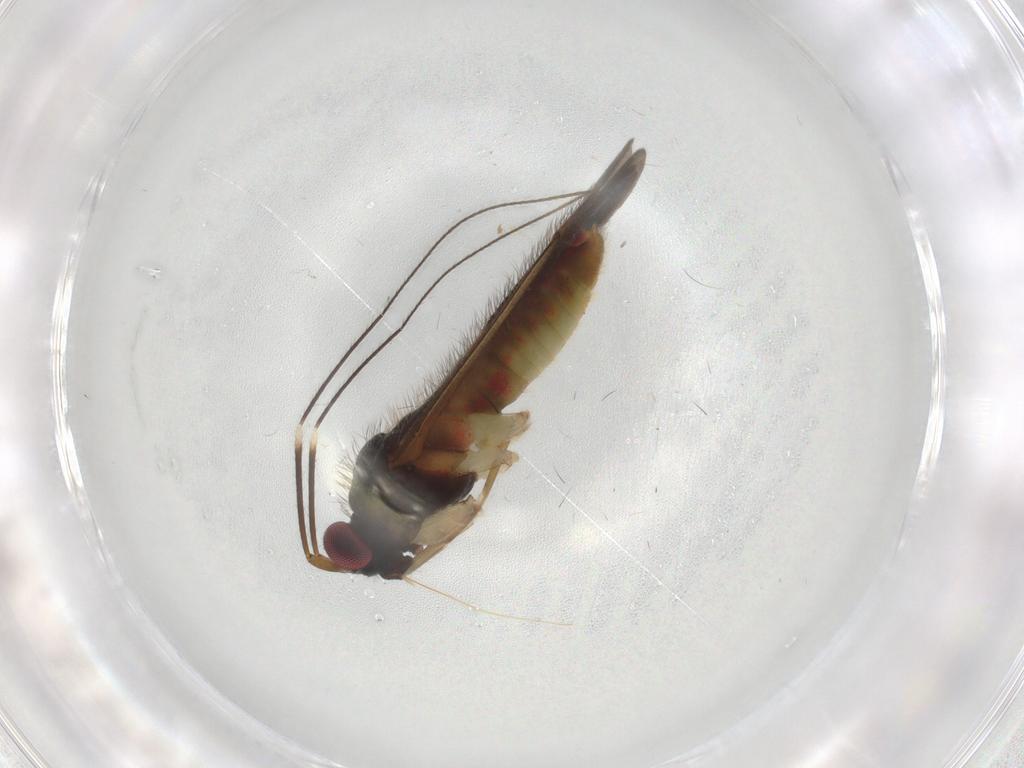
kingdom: Animalia
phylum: Arthropoda
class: Insecta
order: Hemiptera
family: Miridae
